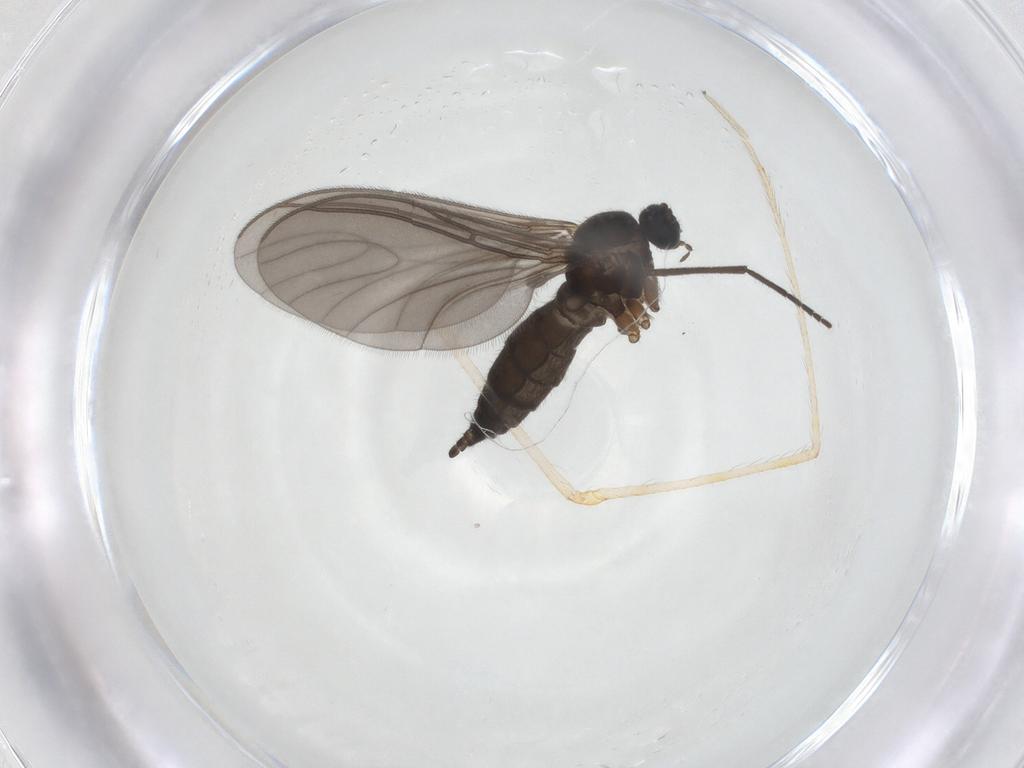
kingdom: Animalia
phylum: Arthropoda
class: Insecta
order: Diptera
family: Sciaridae
